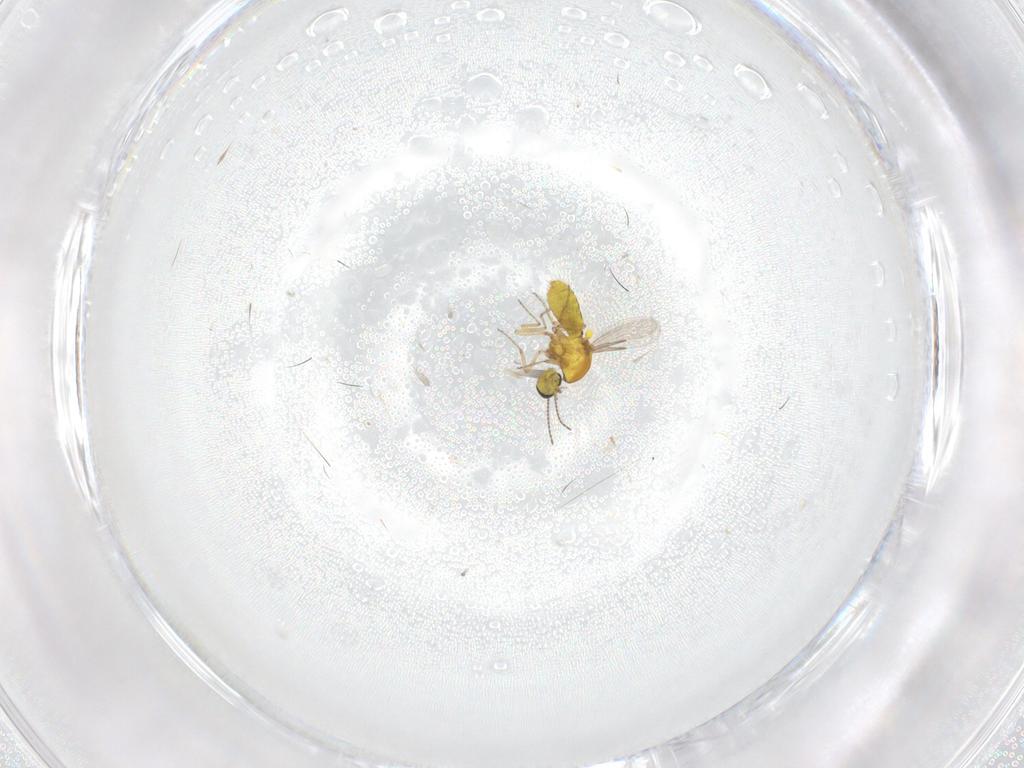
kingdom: Animalia
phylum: Arthropoda
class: Insecta
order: Diptera
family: Ceratopogonidae
